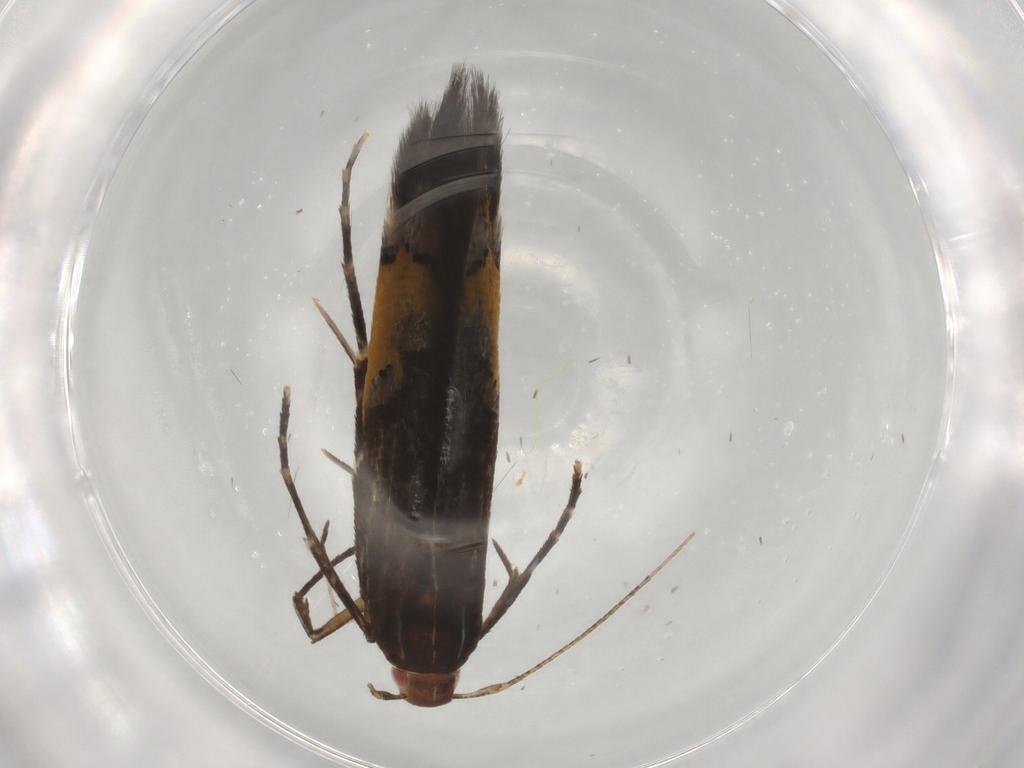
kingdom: Animalia
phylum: Arthropoda
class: Insecta
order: Lepidoptera
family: Cosmopterigidae
